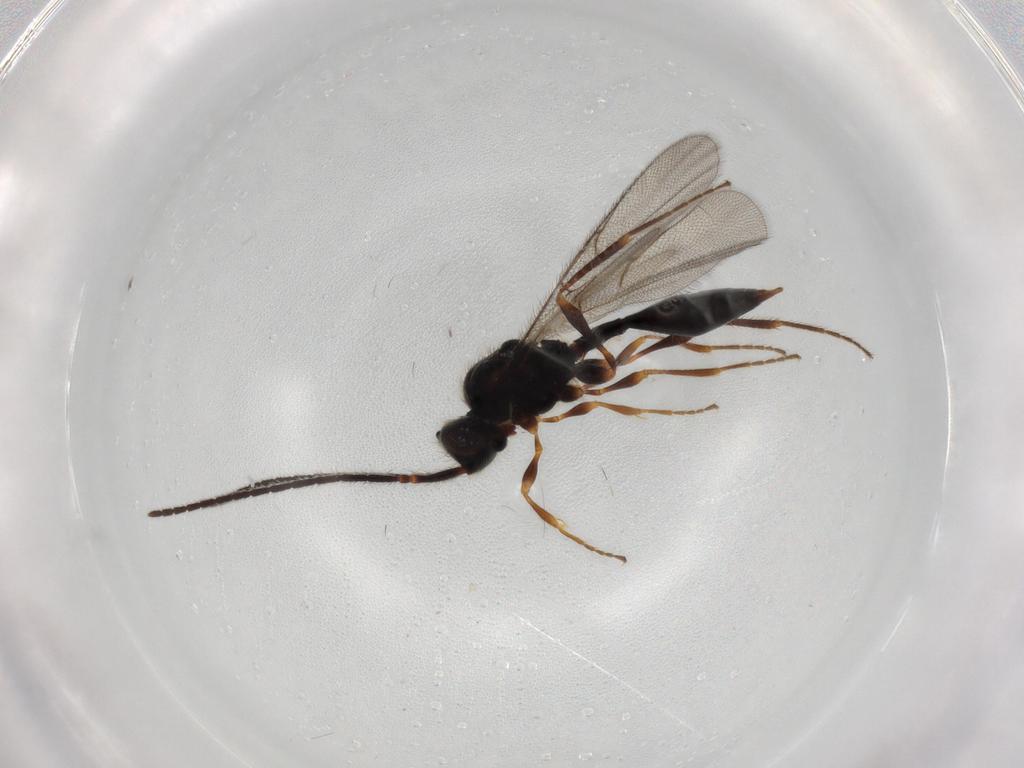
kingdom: Animalia
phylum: Arthropoda
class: Insecta
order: Hymenoptera
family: Diapriidae
